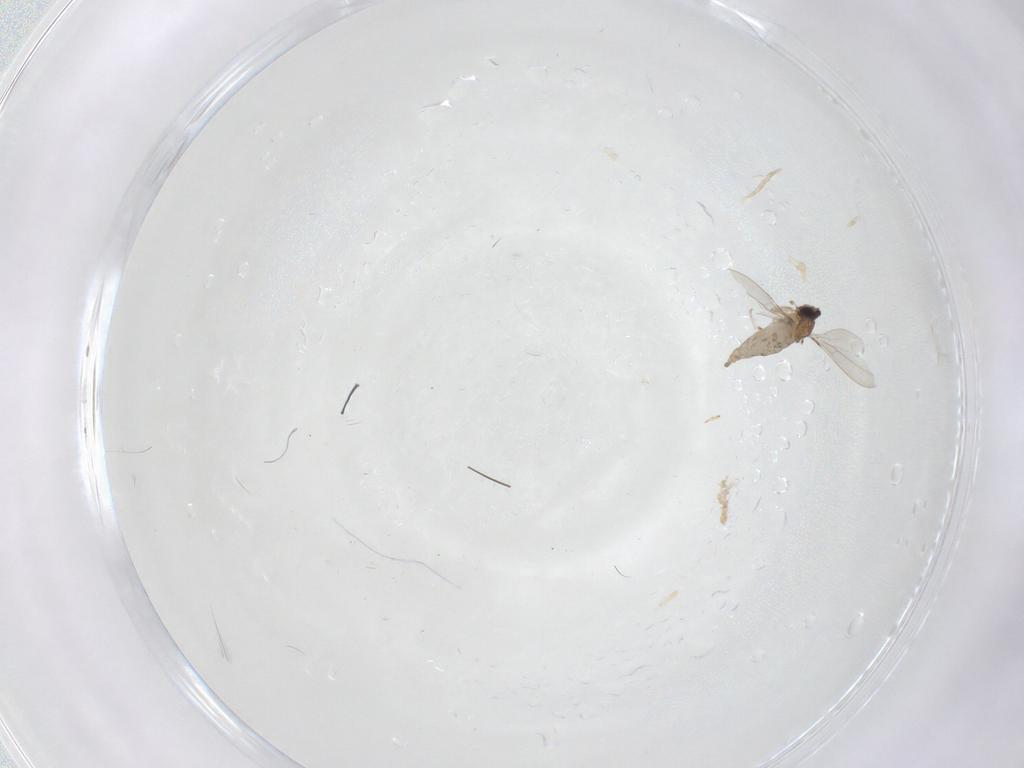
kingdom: Animalia
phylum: Arthropoda
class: Insecta
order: Diptera
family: Cecidomyiidae
